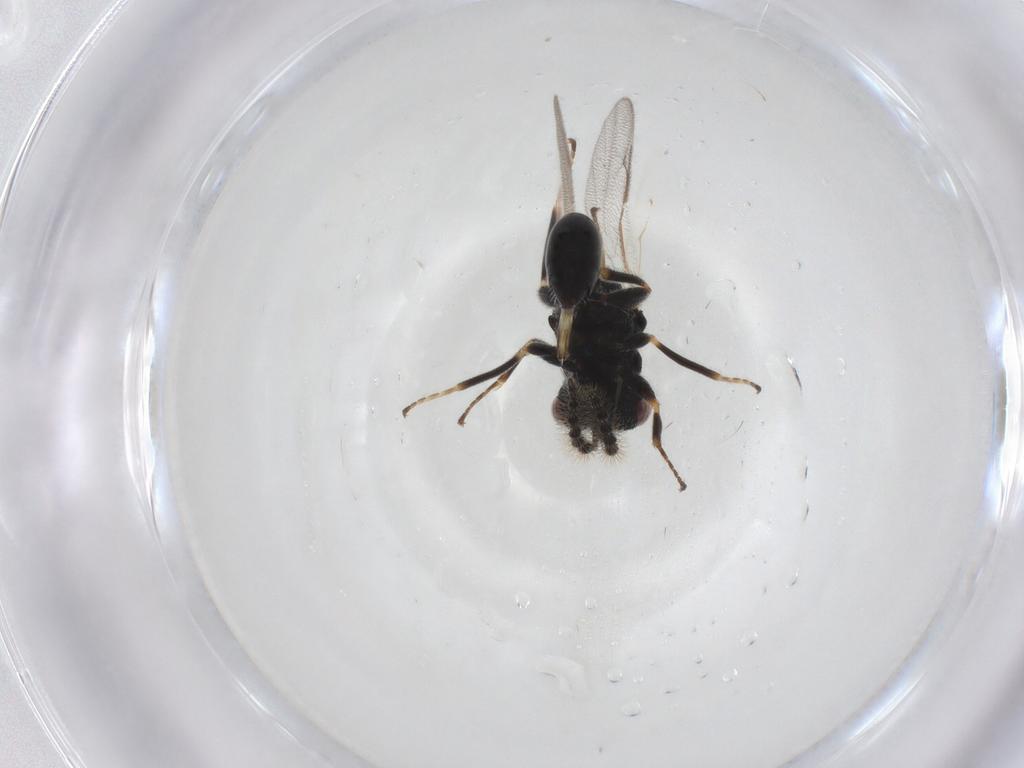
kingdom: Animalia
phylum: Arthropoda
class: Insecta
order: Hymenoptera
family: Eurytomidae
